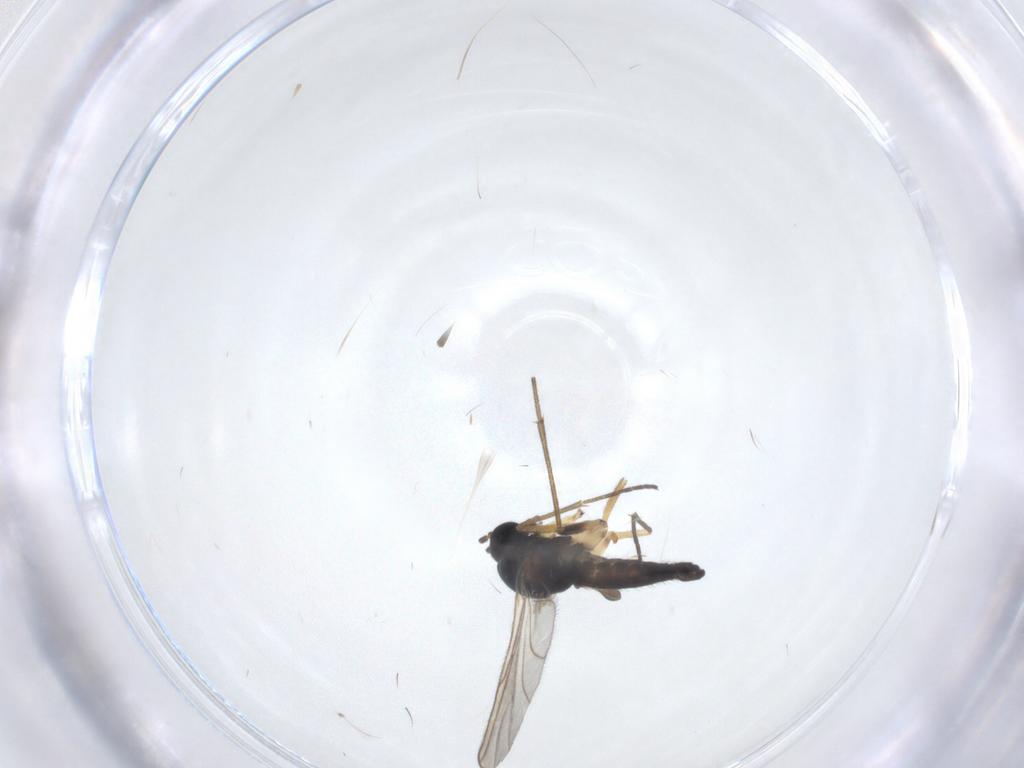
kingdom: Animalia
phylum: Arthropoda
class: Insecta
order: Diptera
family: Sciaridae
